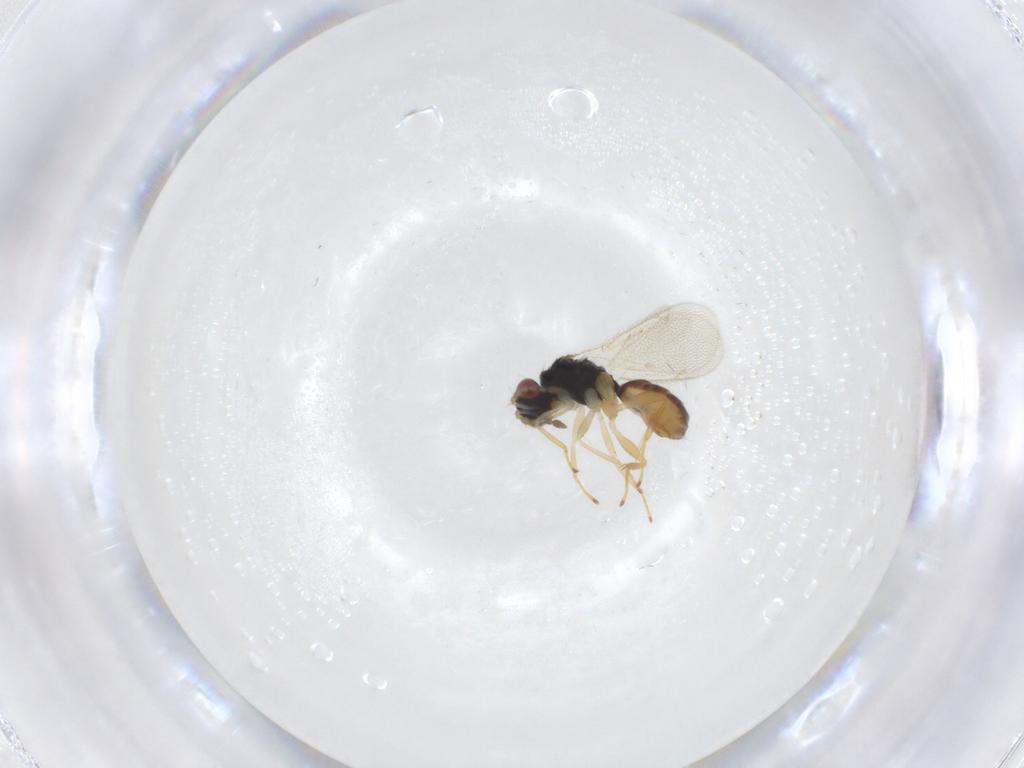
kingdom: Animalia
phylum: Arthropoda
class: Insecta
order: Hymenoptera
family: Eulophidae
